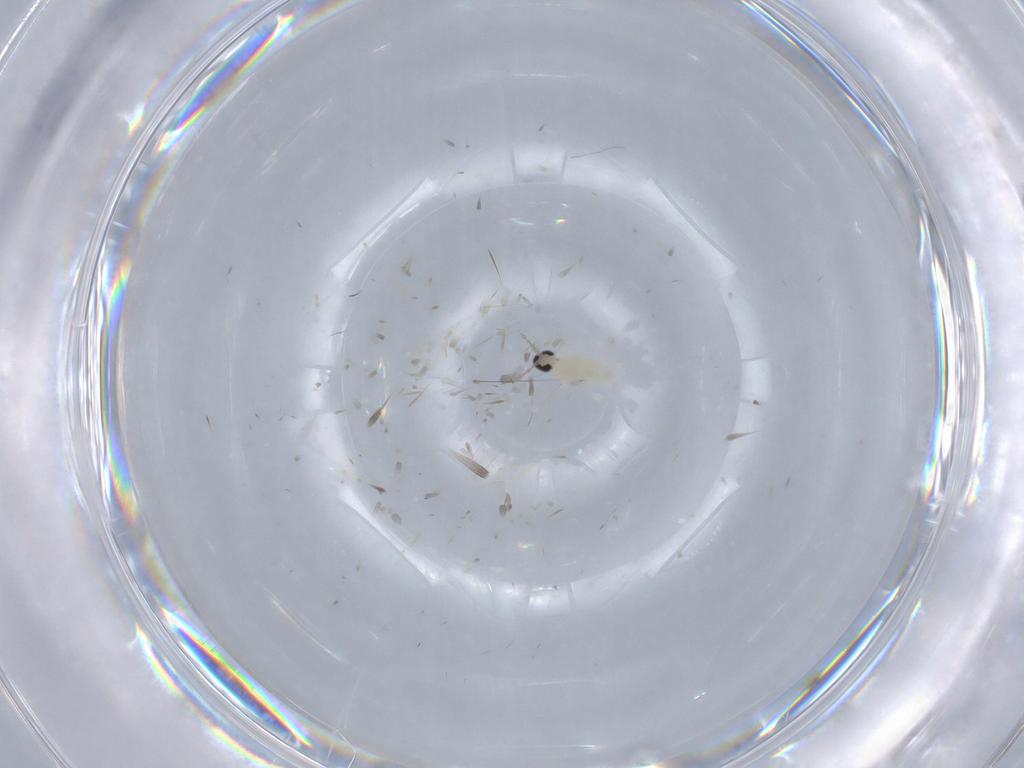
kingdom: Animalia
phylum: Arthropoda
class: Insecta
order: Diptera
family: Cecidomyiidae
